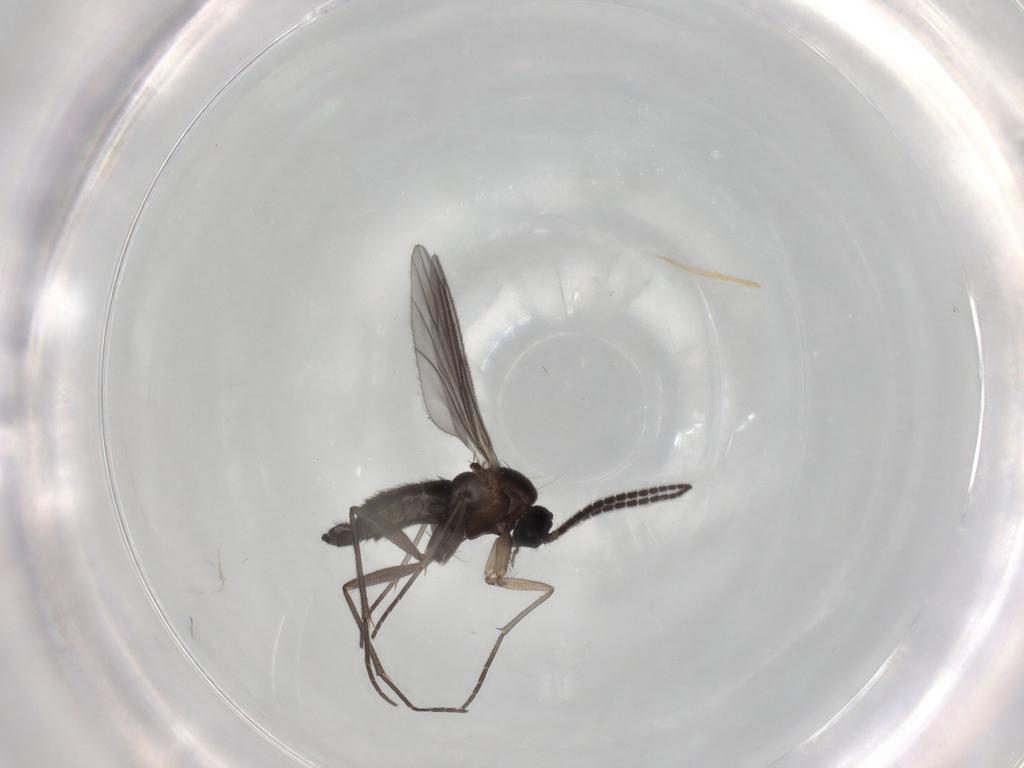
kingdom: Animalia
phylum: Arthropoda
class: Insecta
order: Diptera
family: Sciaridae
